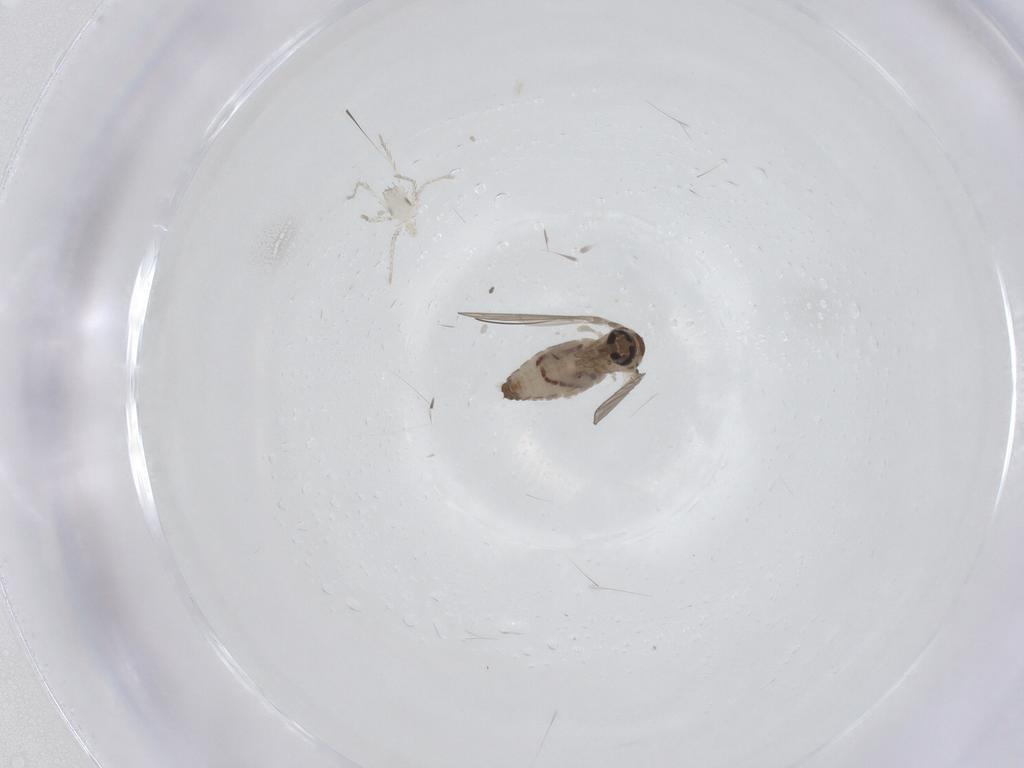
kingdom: Animalia
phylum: Arthropoda
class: Insecta
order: Diptera
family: Psychodidae
